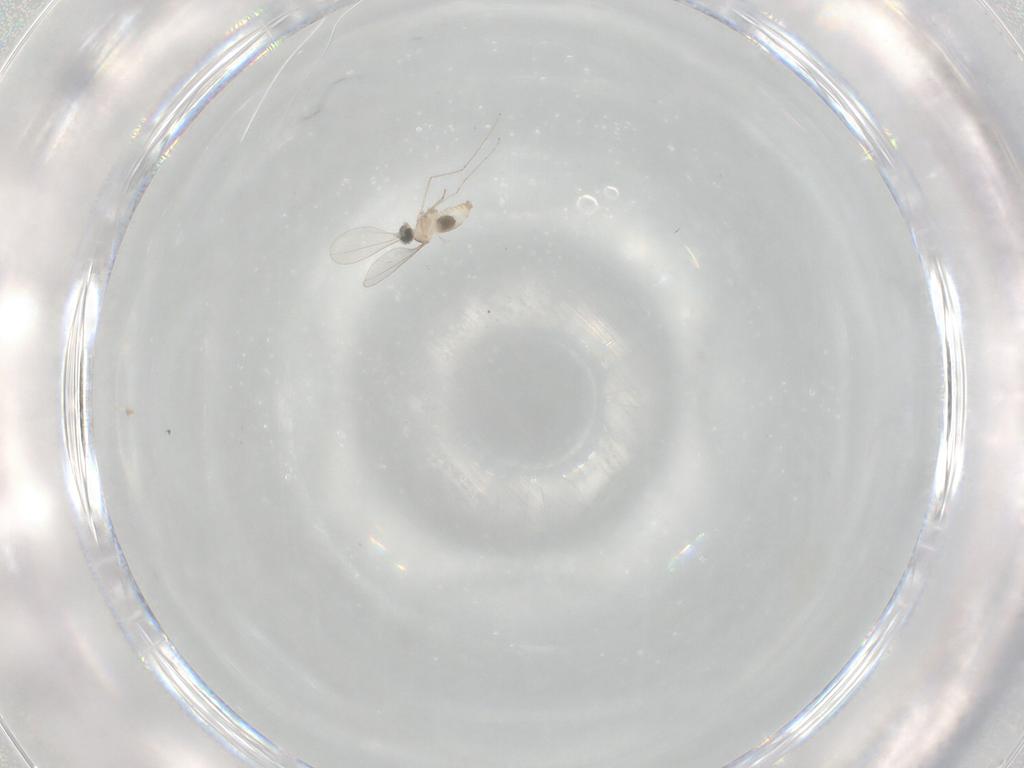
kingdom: Animalia
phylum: Arthropoda
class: Insecta
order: Diptera
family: Cecidomyiidae
